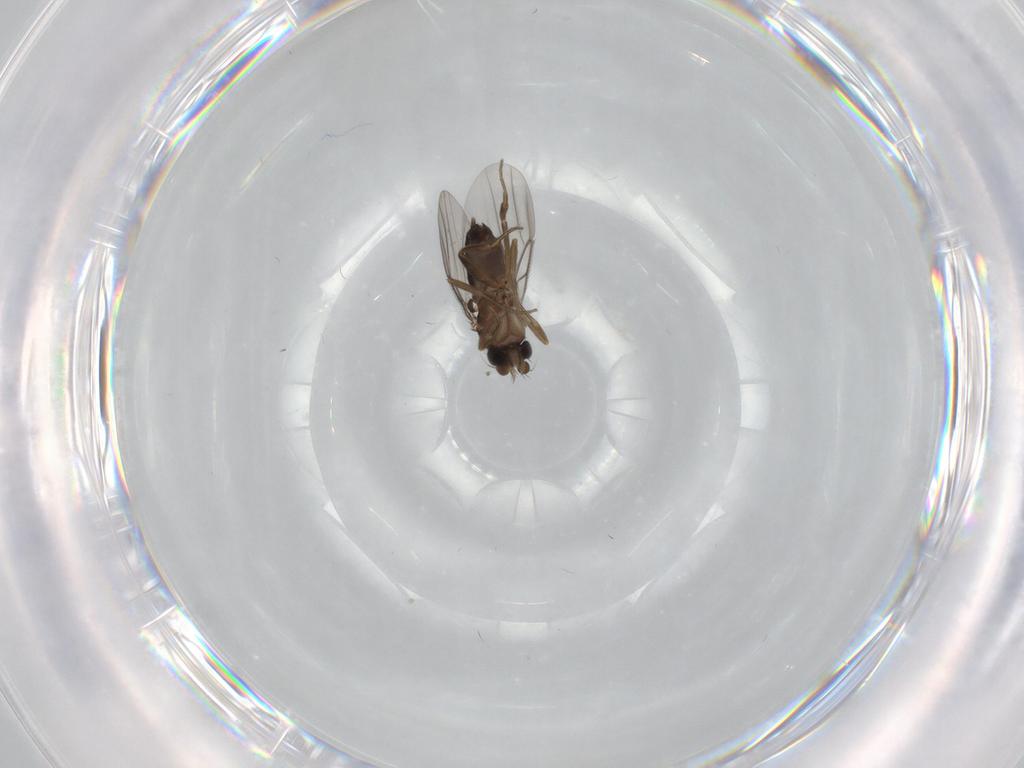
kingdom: Animalia
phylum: Arthropoda
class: Insecta
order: Diptera
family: Phoridae
